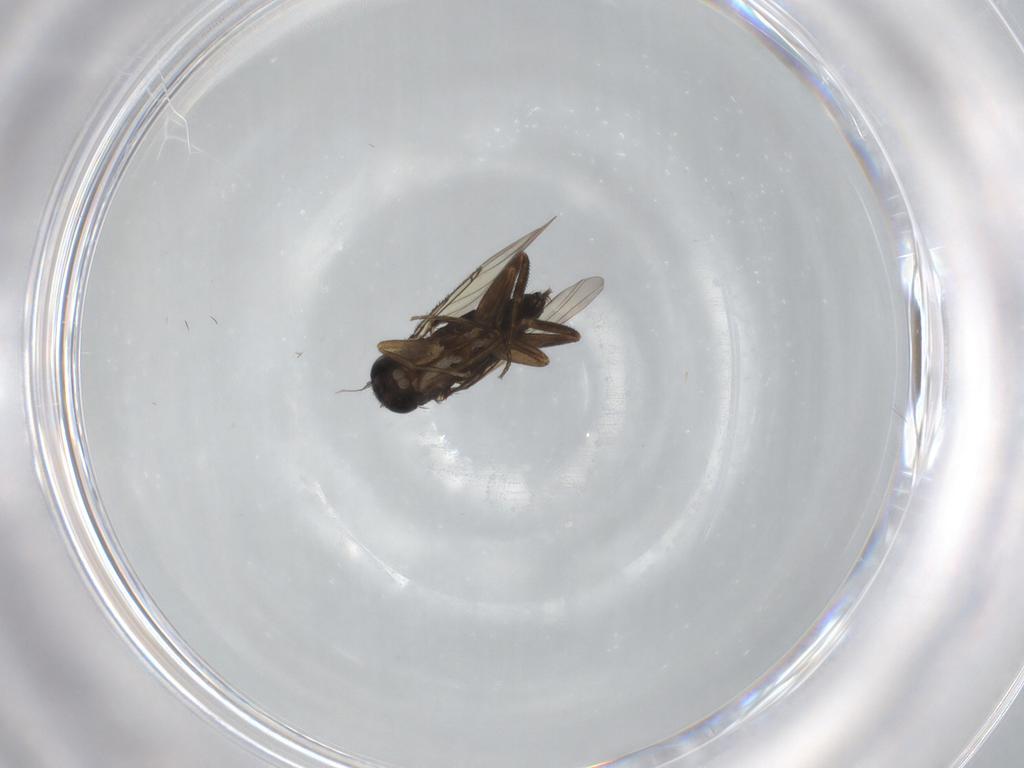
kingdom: Animalia
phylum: Arthropoda
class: Insecta
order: Diptera
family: Phoridae
